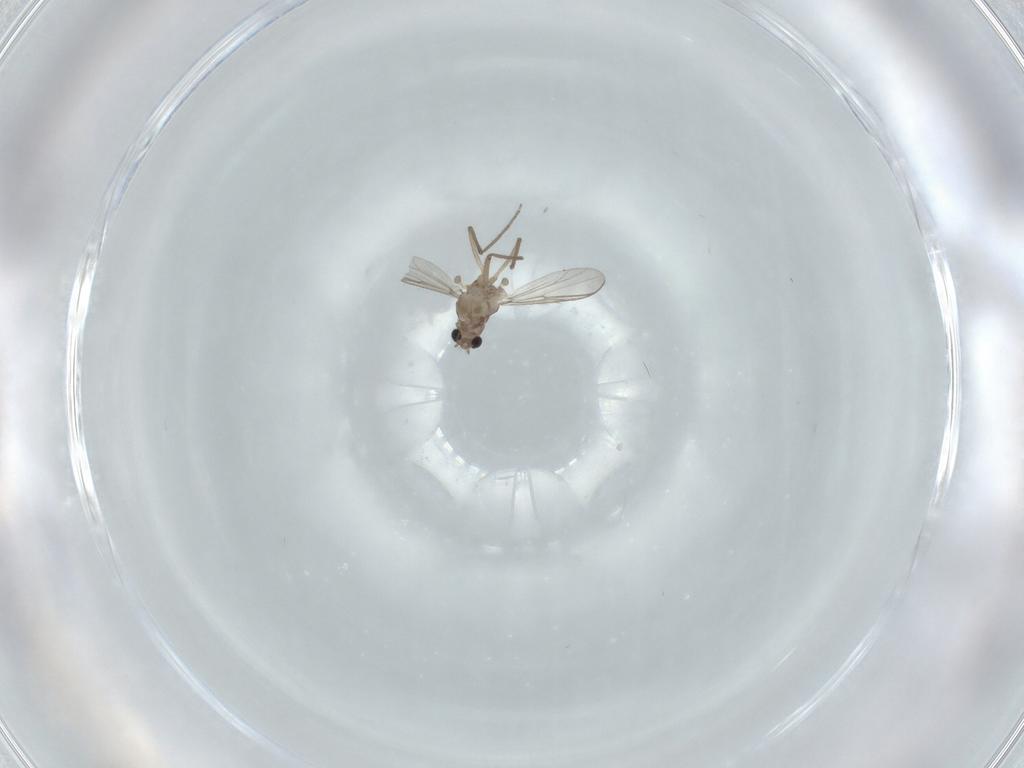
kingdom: Animalia
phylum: Arthropoda
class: Insecta
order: Diptera
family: Chironomidae
